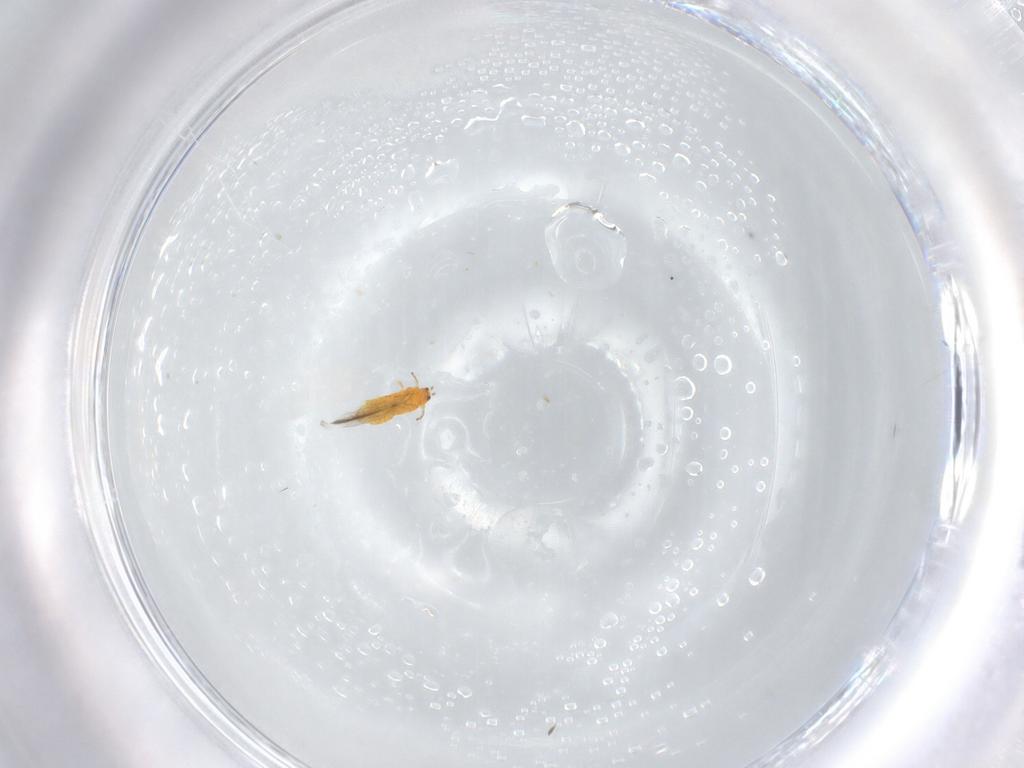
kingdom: Animalia
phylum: Arthropoda
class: Insecta
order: Thysanoptera
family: Thripidae
